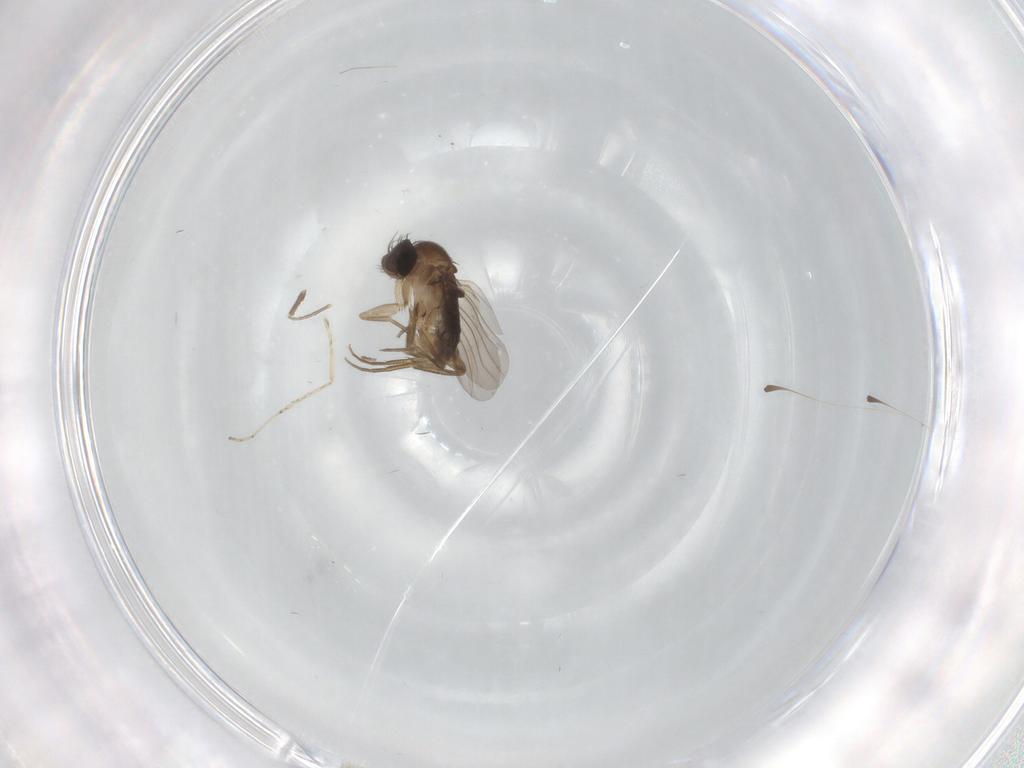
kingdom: Animalia
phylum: Arthropoda
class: Insecta
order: Diptera
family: Phoridae
